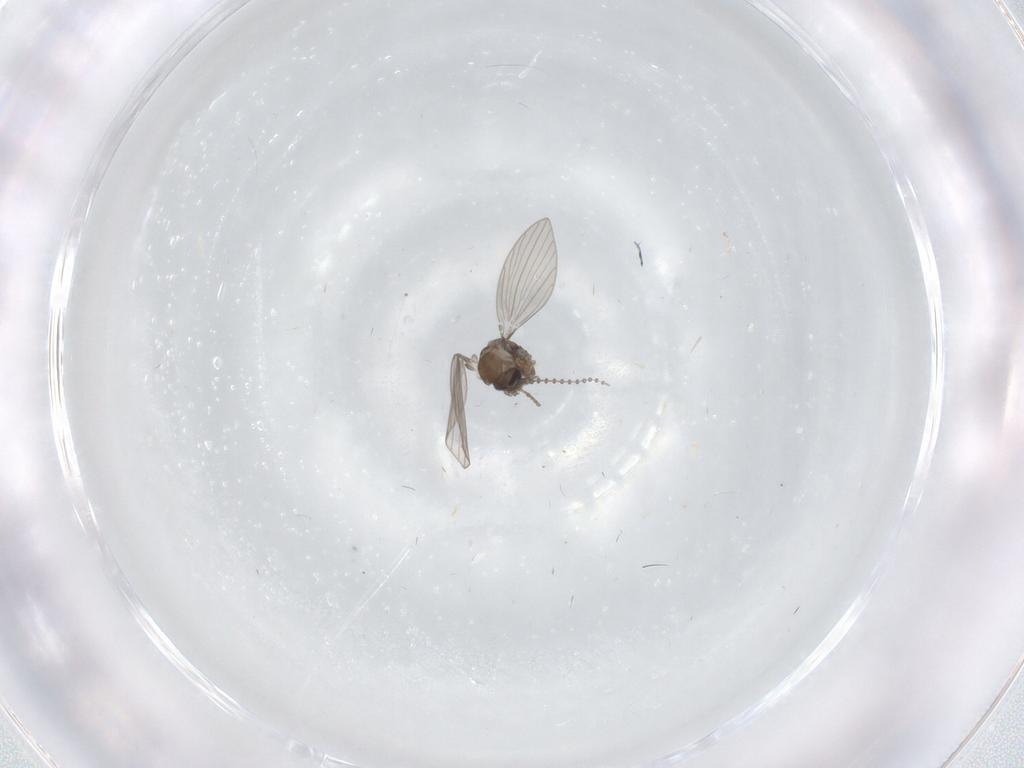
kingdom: Animalia
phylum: Arthropoda
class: Insecta
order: Diptera
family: Psychodidae
